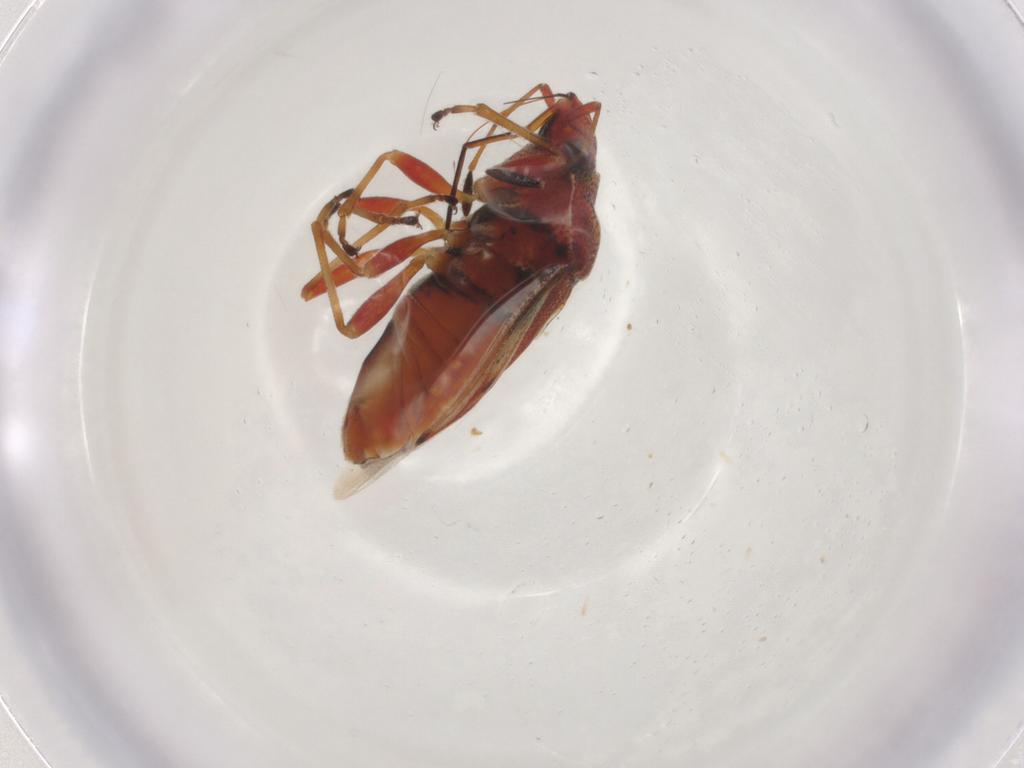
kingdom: Animalia
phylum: Arthropoda
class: Insecta
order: Hemiptera
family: Lygaeidae
